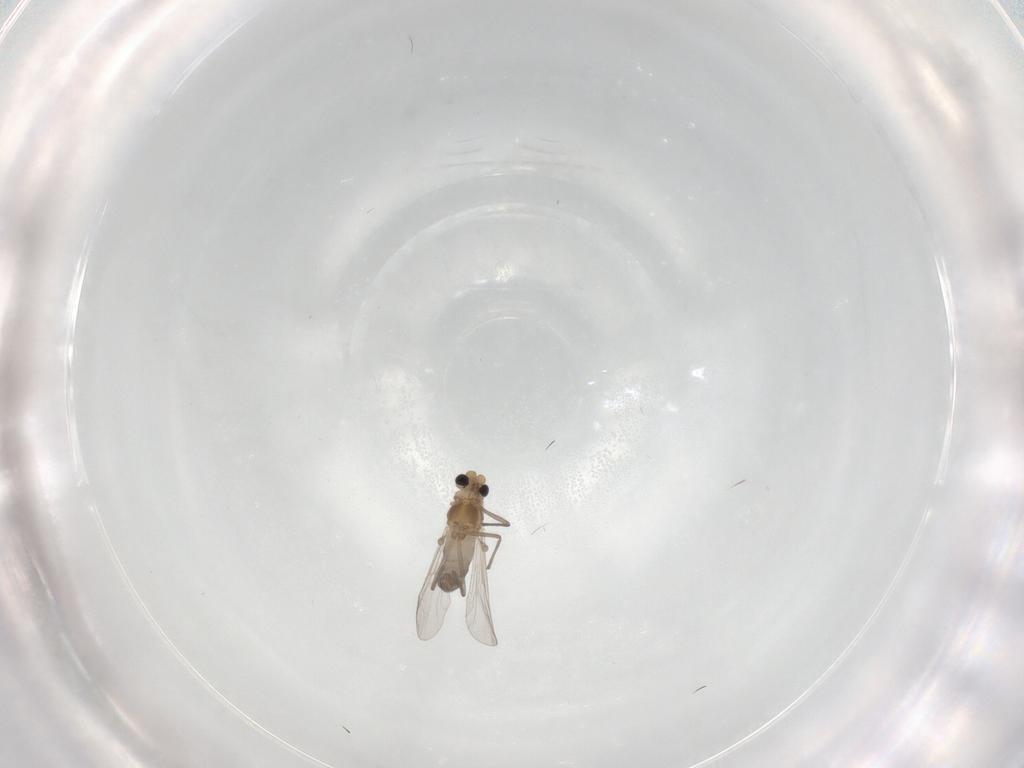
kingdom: Animalia
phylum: Arthropoda
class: Insecta
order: Diptera
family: Chironomidae
